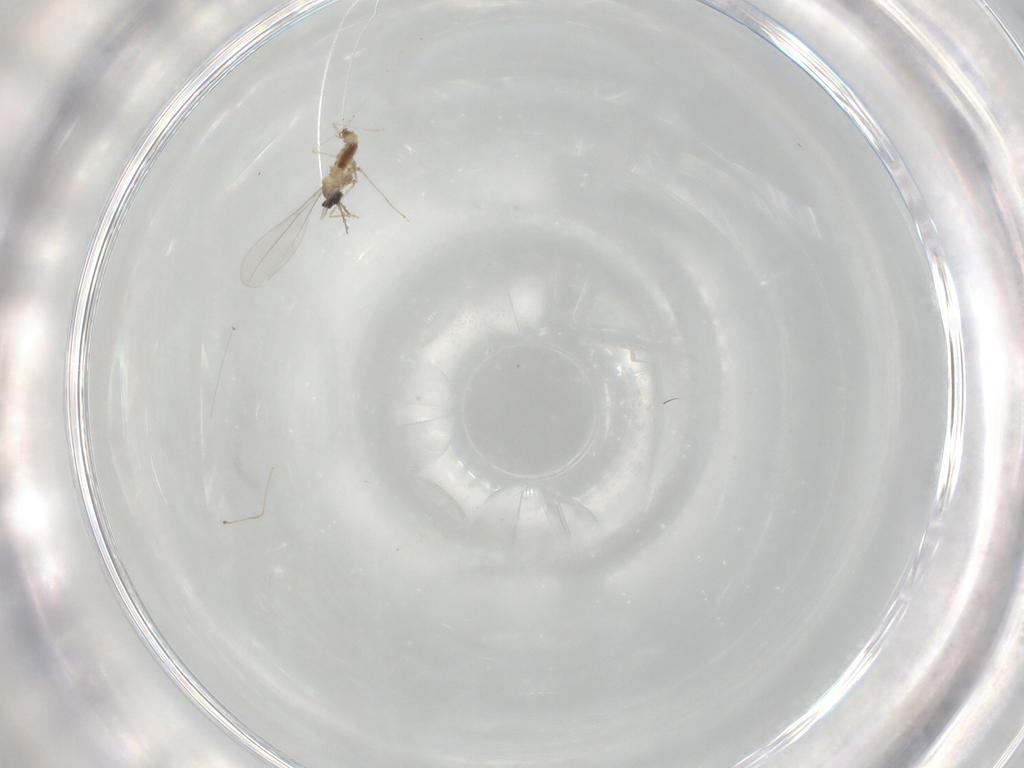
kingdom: Animalia
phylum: Arthropoda
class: Insecta
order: Diptera
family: Cecidomyiidae
